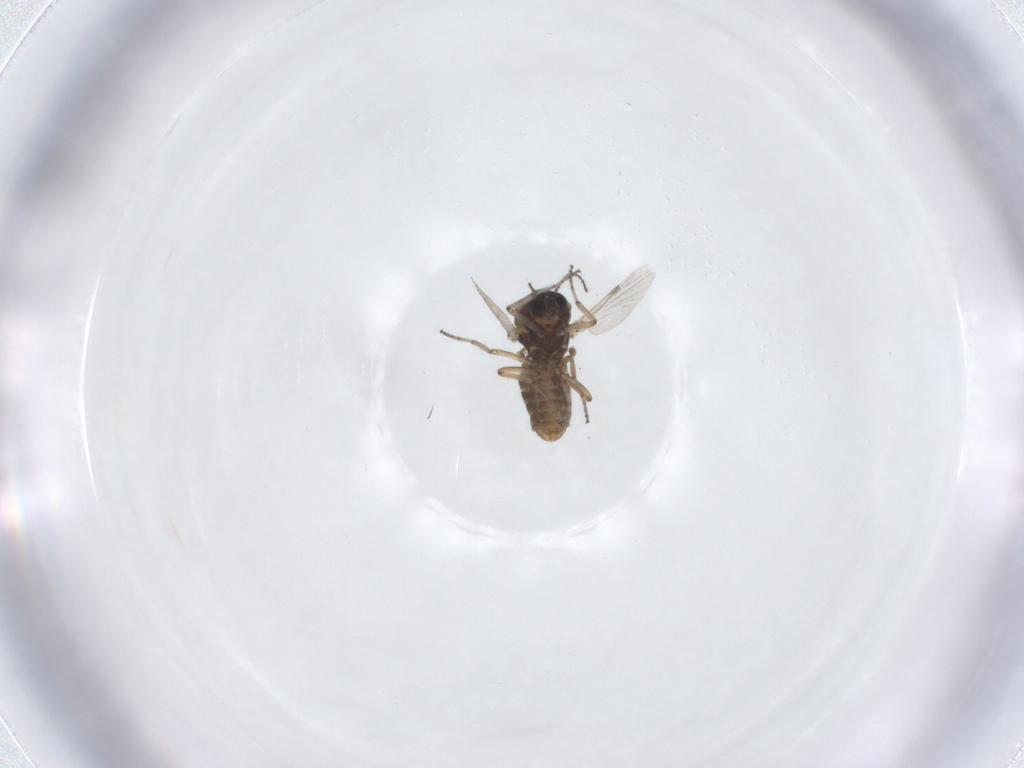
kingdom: Animalia
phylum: Arthropoda
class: Insecta
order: Diptera
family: Ceratopogonidae
